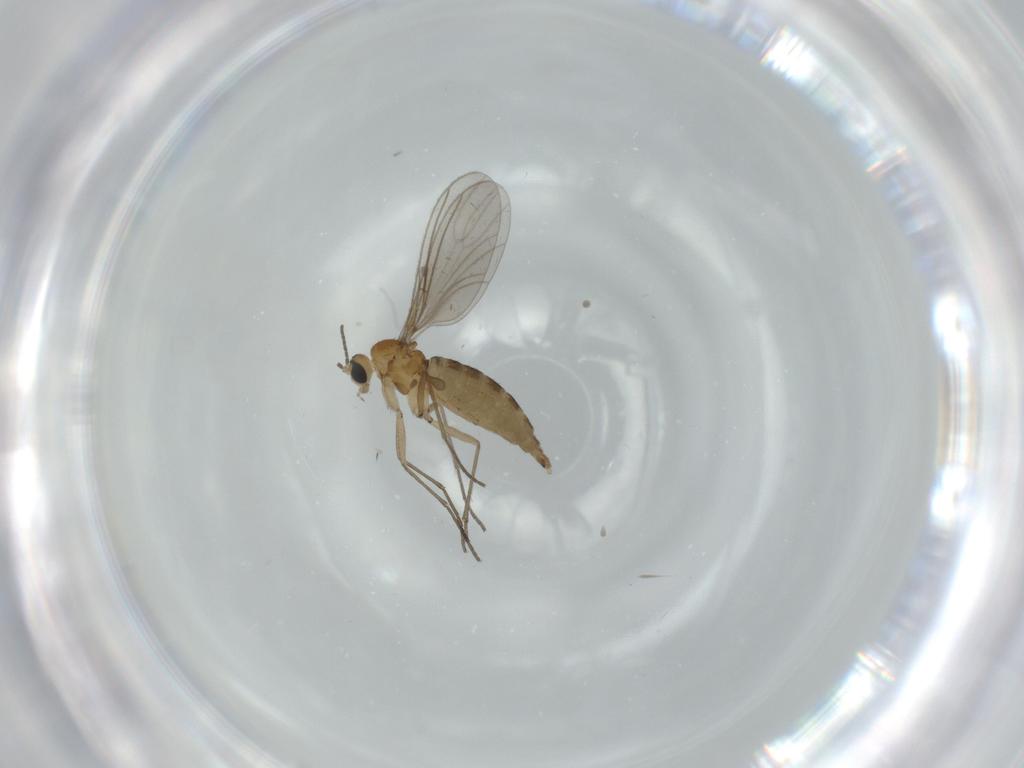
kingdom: Animalia
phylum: Arthropoda
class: Insecta
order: Diptera
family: Sciaridae
